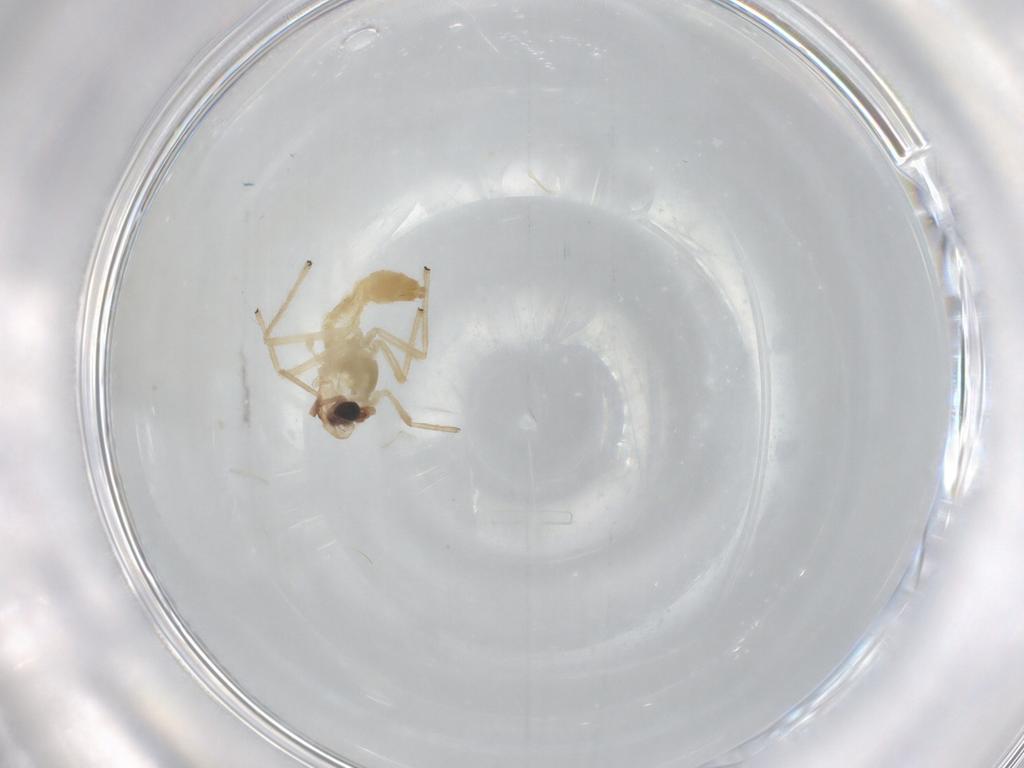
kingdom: Animalia
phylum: Arthropoda
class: Insecta
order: Diptera
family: Chironomidae
